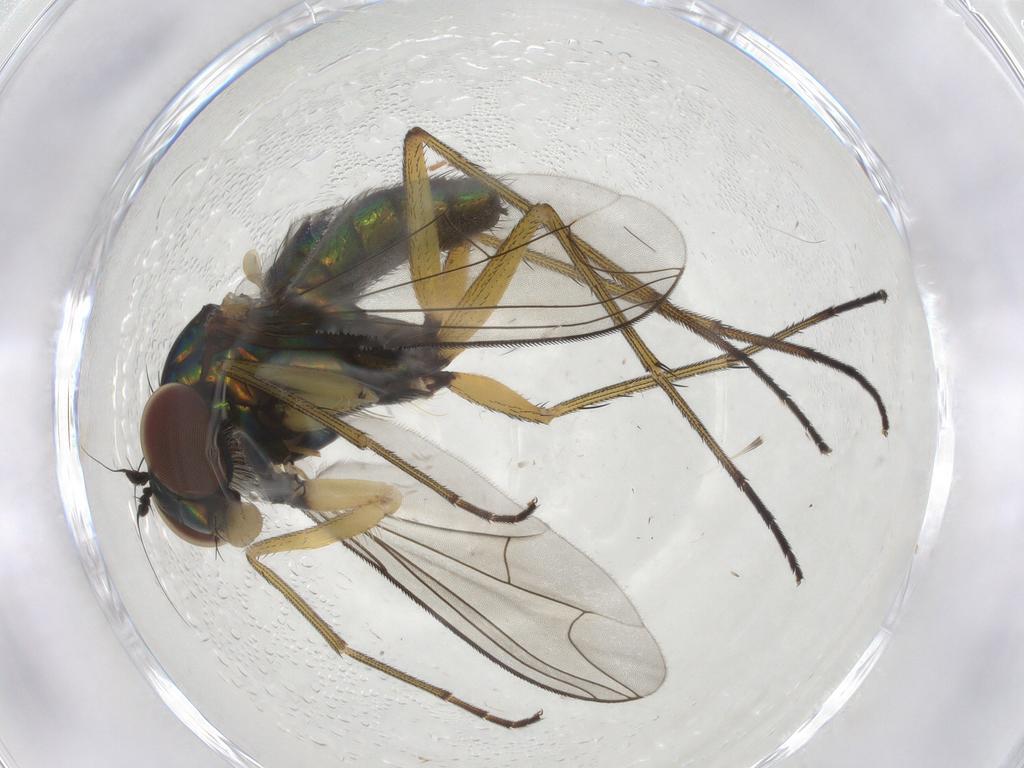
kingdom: Animalia
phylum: Arthropoda
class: Insecta
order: Diptera
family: Dolichopodidae
